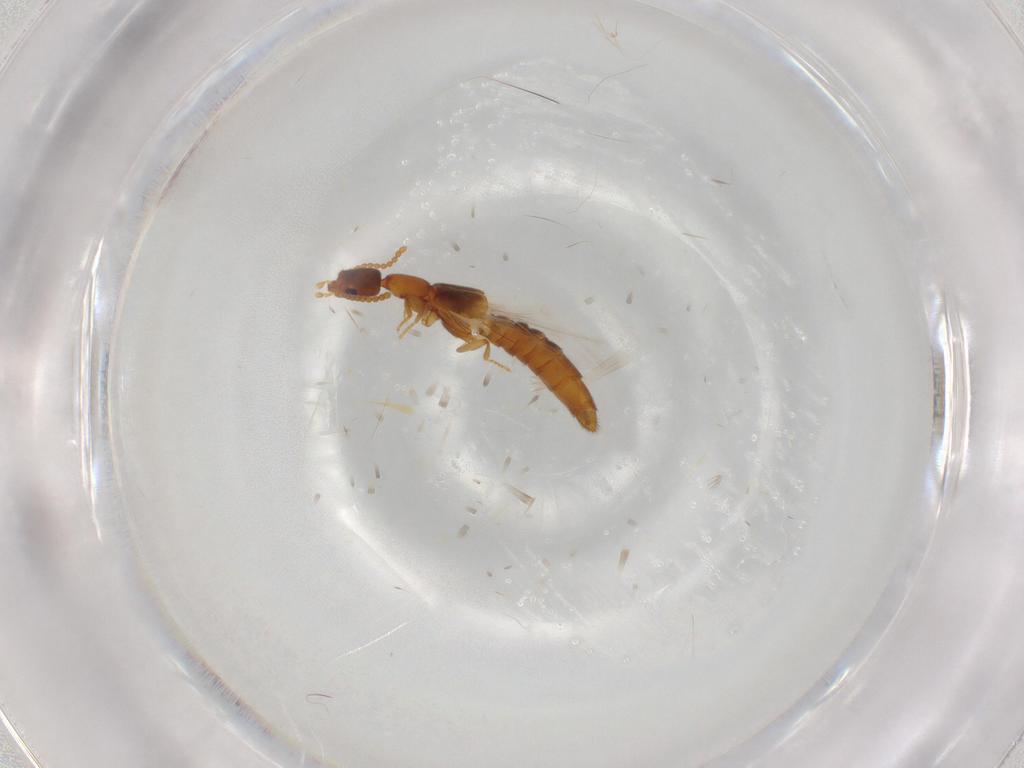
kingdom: Animalia
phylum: Arthropoda
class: Insecta
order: Coleoptera
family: Staphylinidae
